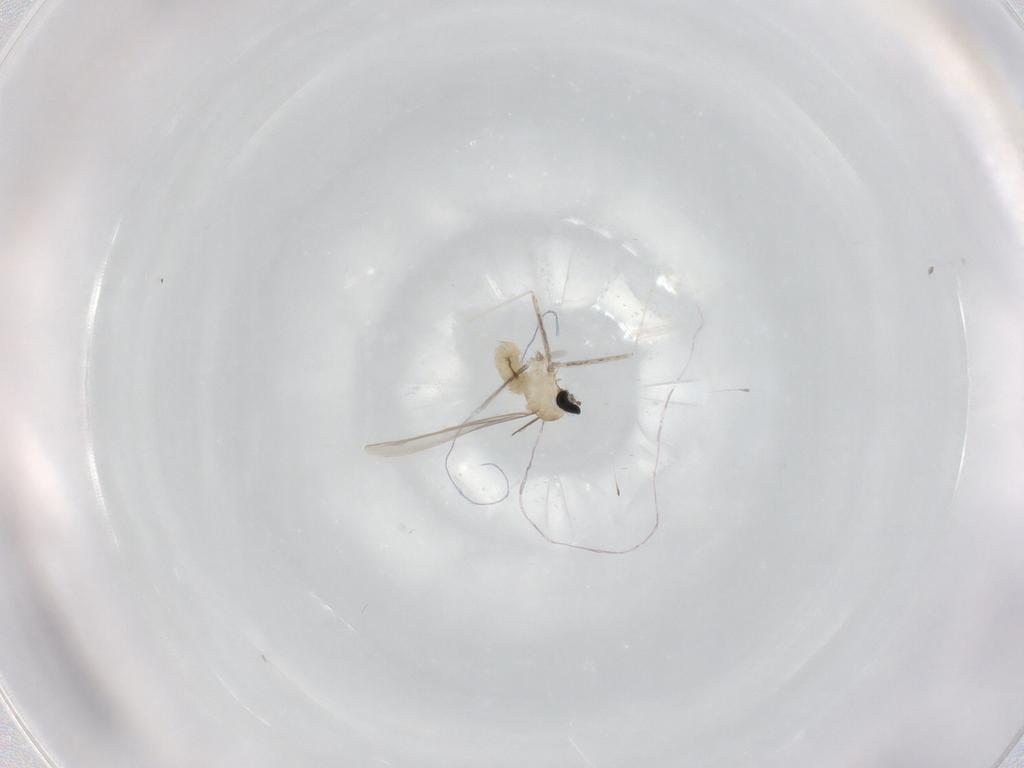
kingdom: Animalia
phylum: Arthropoda
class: Insecta
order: Diptera
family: Cecidomyiidae
